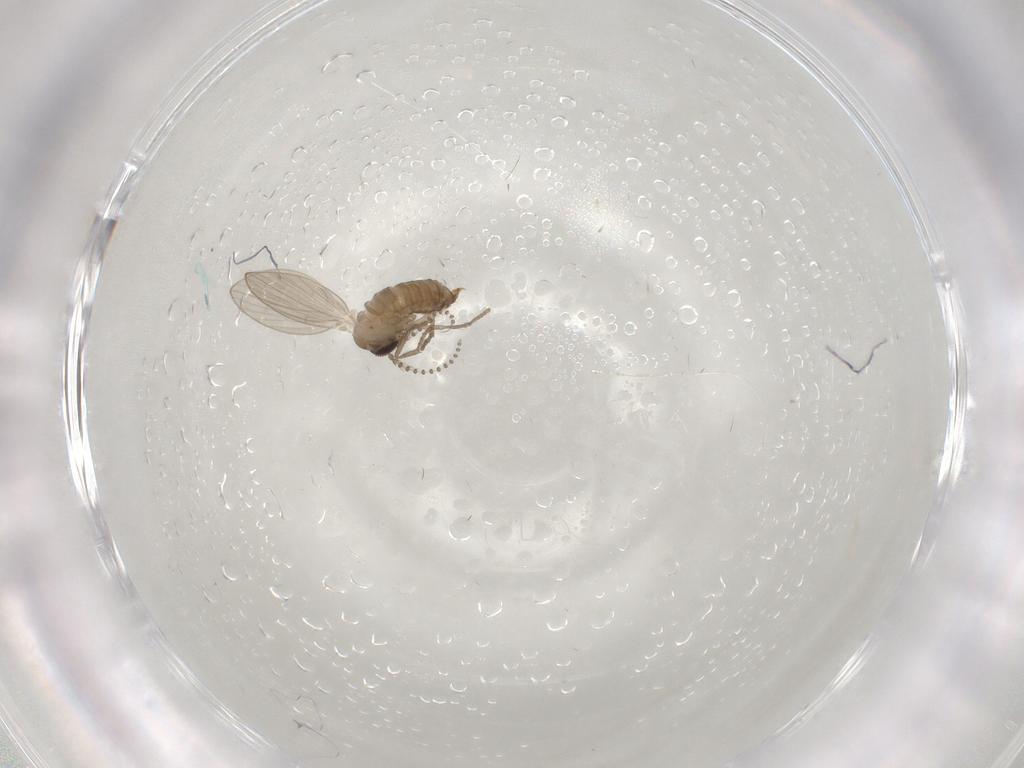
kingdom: Animalia
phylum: Arthropoda
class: Insecta
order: Diptera
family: Psychodidae
